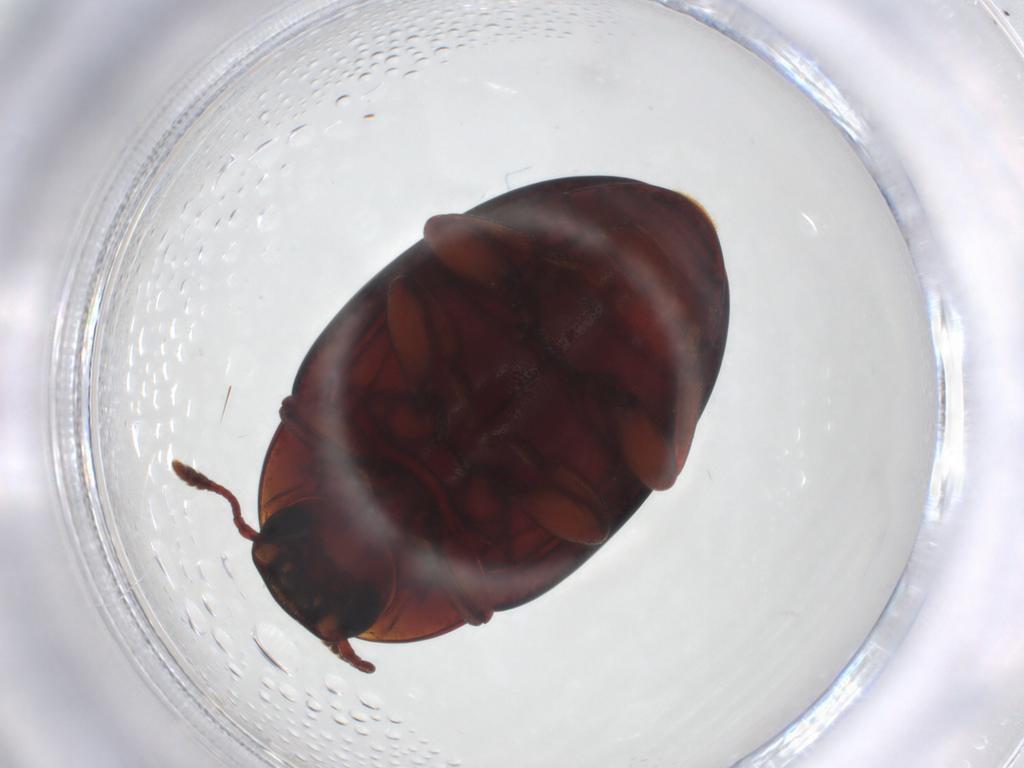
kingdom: Animalia
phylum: Arthropoda
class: Insecta
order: Coleoptera
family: Zopheridae
